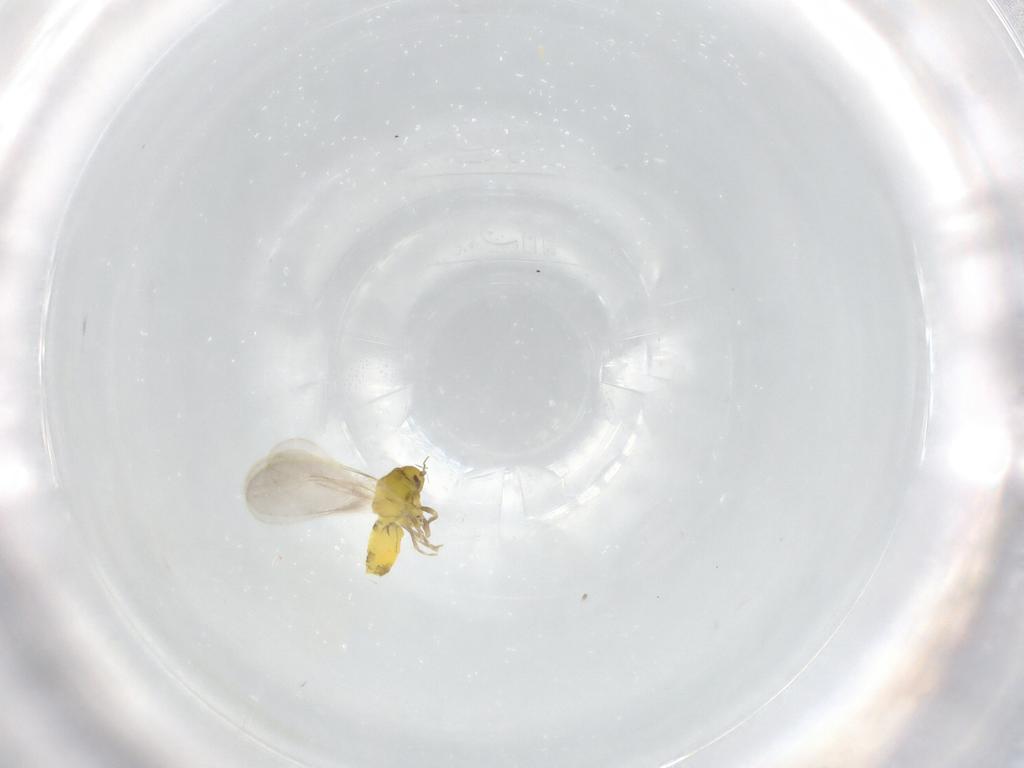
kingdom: Animalia
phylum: Arthropoda
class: Insecta
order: Hemiptera
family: Aleyrodidae
